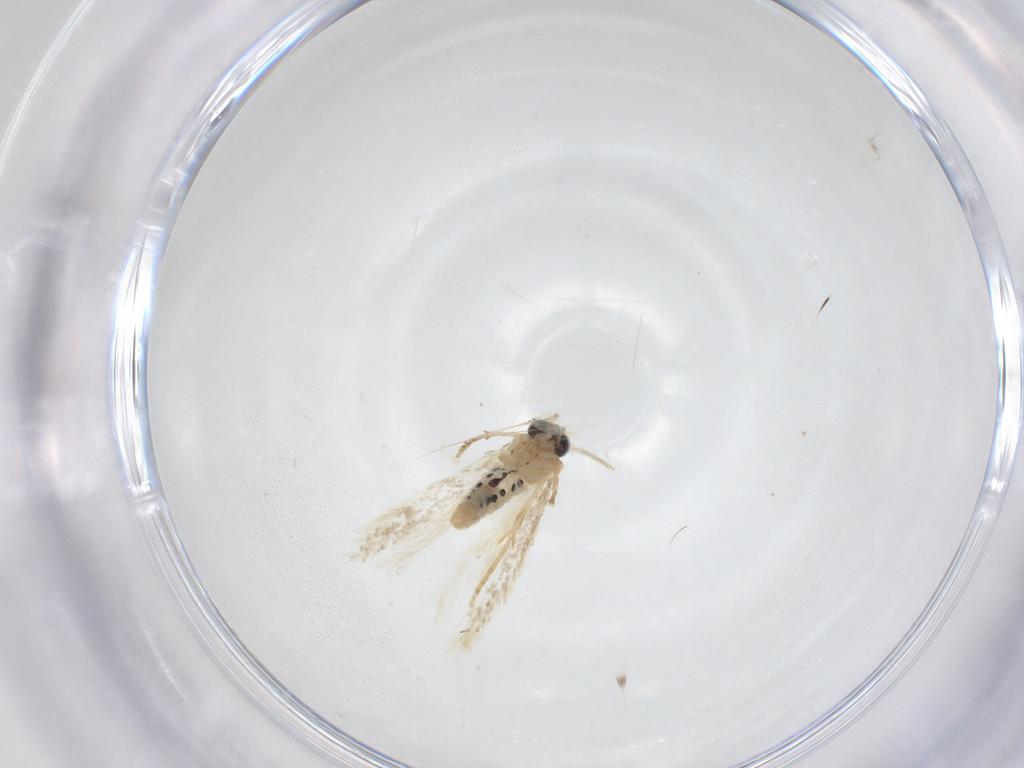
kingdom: Animalia
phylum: Arthropoda
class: Insecta
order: Lepidoptera
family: Nepticulidae
